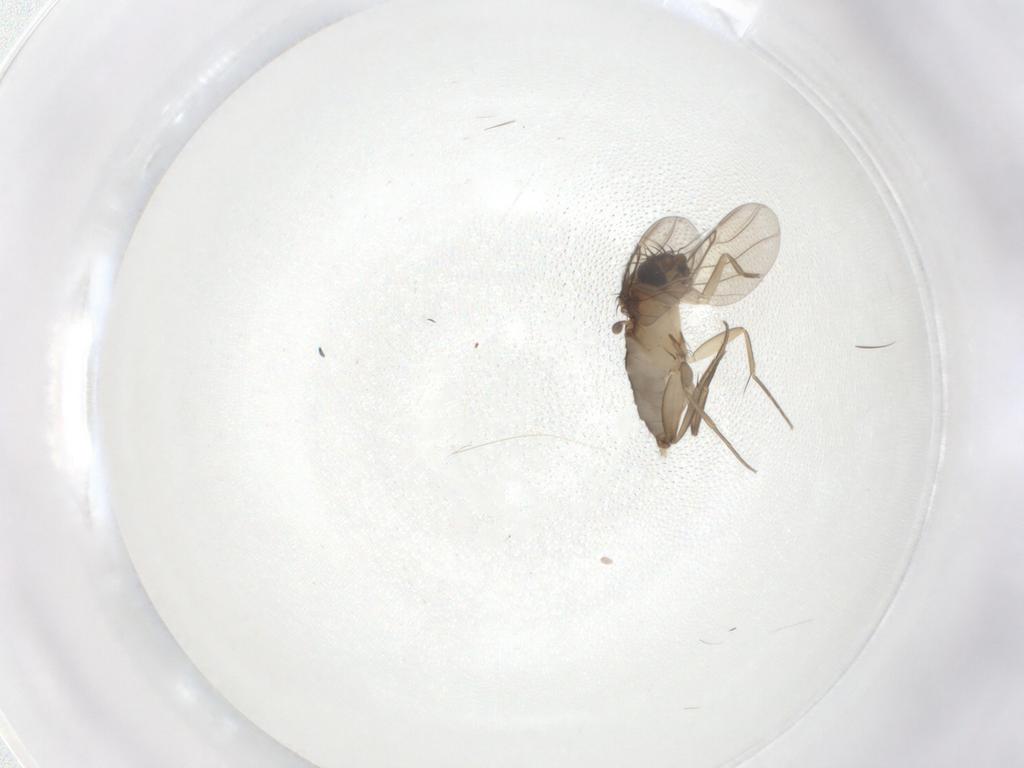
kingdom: Animalia
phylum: Arthropoda
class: Insecta
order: Diptera
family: Phoridae
